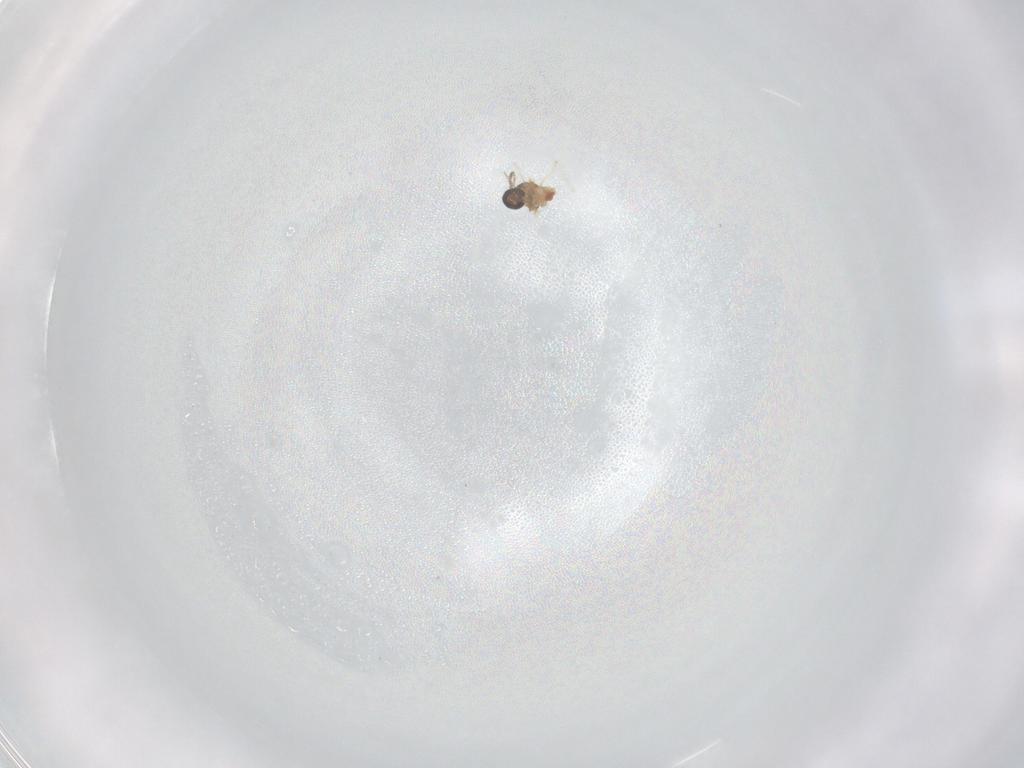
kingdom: Animalia
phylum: Arthropoda
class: Insecta
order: Diptera
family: Cecidomyiidae
